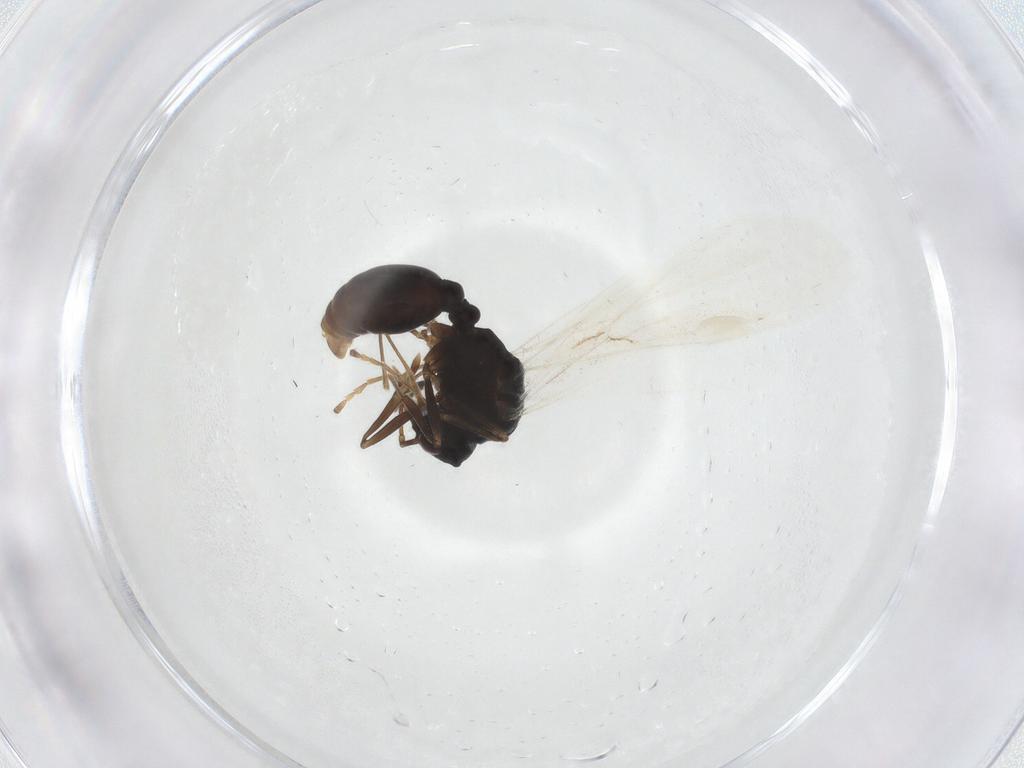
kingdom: Animalia
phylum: Arthropoda
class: Insecta
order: Hymenoptera
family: Formicidae
